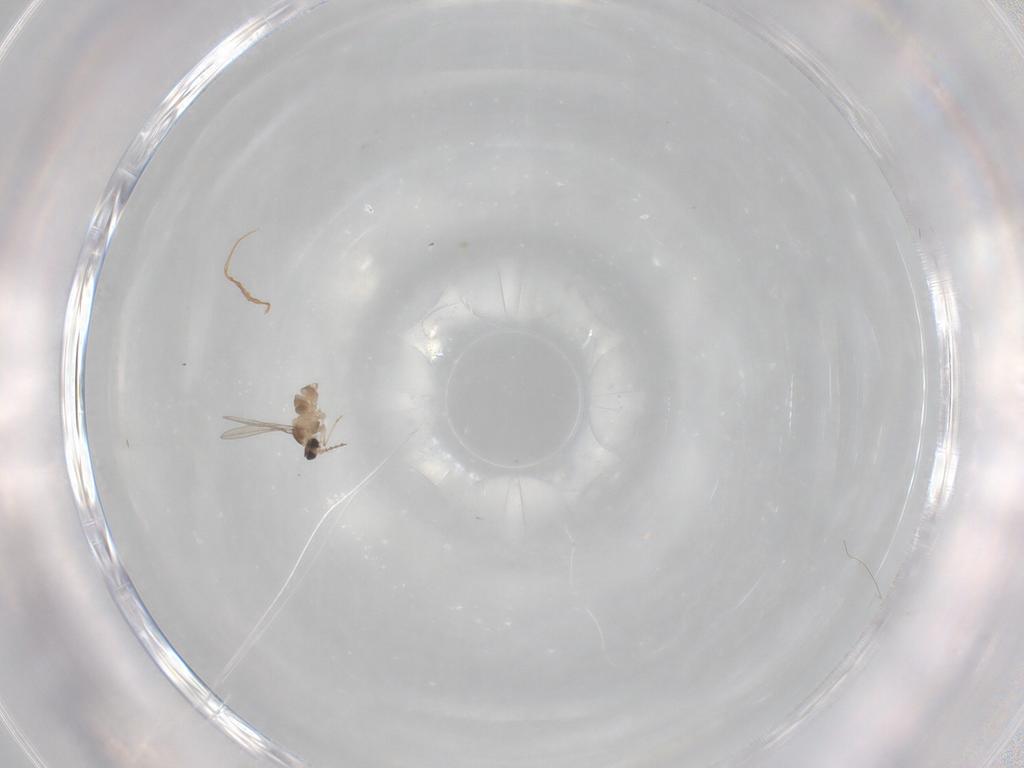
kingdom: Animalia
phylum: Arthropoda
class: Insecta
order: Diptera
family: Cecidomyiidae
